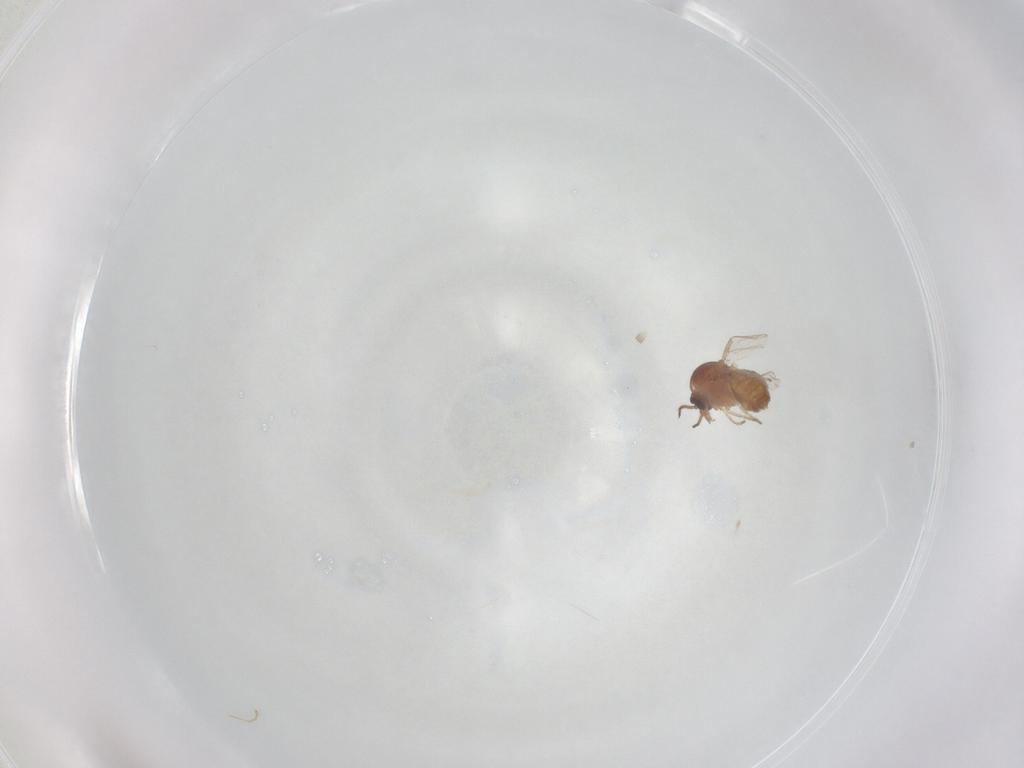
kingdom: Animalia
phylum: Arthropoda
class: Insecta
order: Diptera
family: Ceratopogonidae
